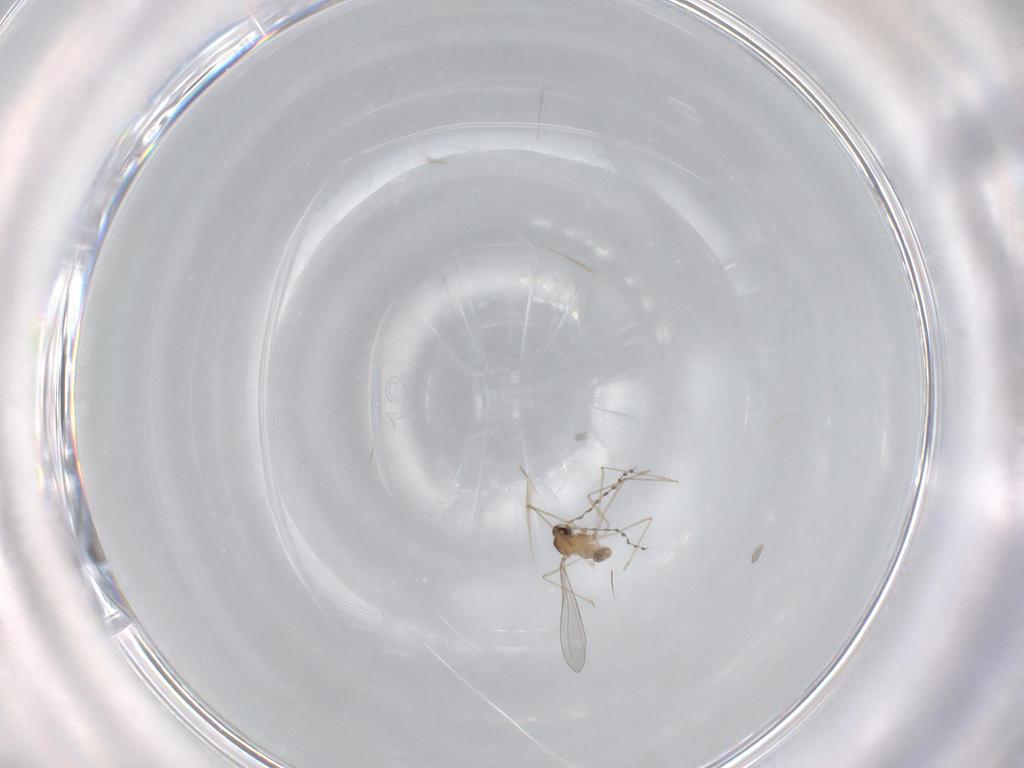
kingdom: Animalia
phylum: Arthropoda
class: Insecta
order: Diptera
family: Cecidomyiidae
